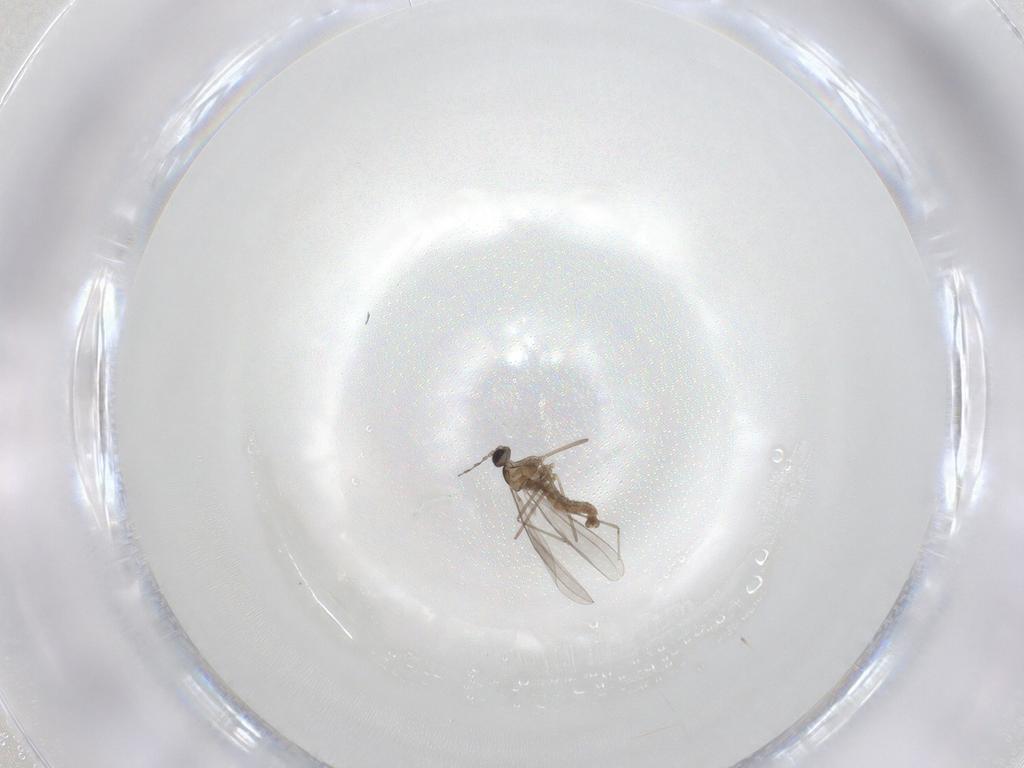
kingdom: Animalia
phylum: Arthropoda
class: Insecta
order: Diptera
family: Cecidomyiidae
